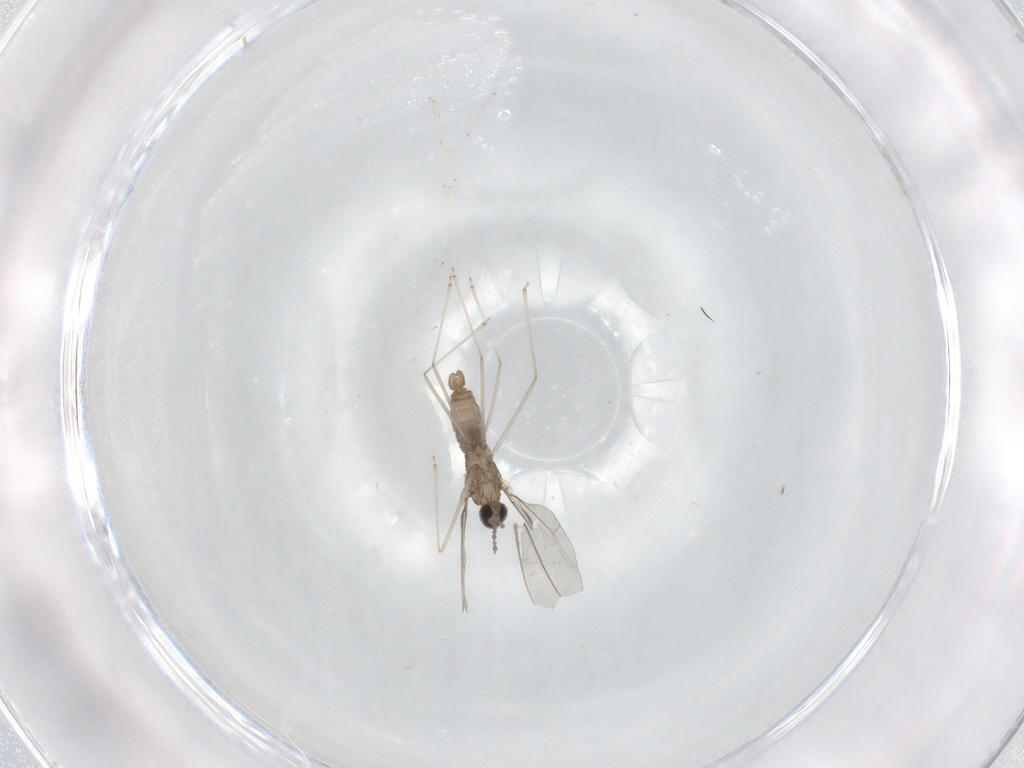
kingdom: Animalia
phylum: Arthropoda
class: Insecta
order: Diptera
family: Cecidomyiidae
